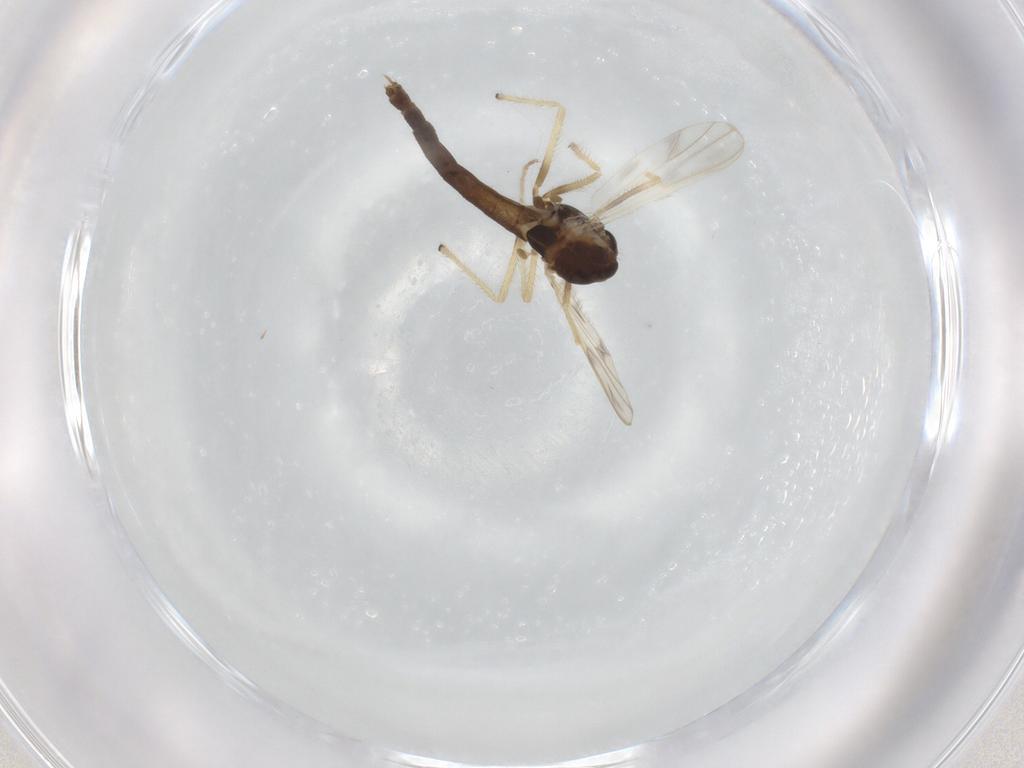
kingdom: Animalia
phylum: Arthropoda
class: Insecta
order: Diptera
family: Chironomidae
